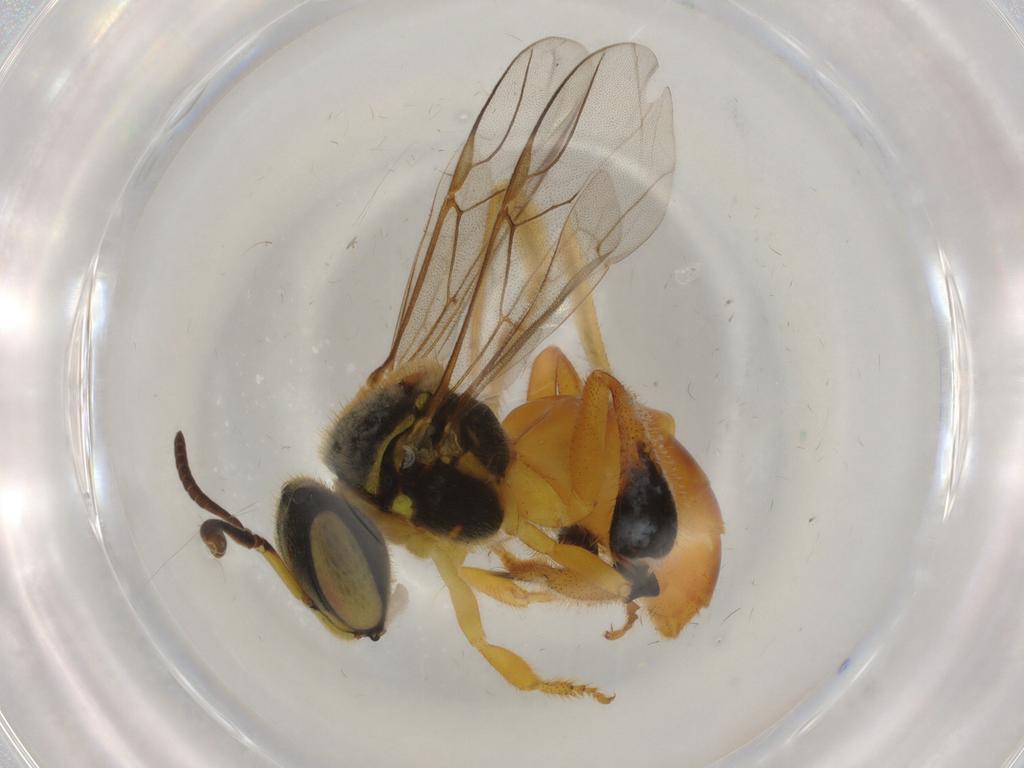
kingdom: Animalia
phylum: Arthropoda
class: Insecta
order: Hymenoptera
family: Apidae
